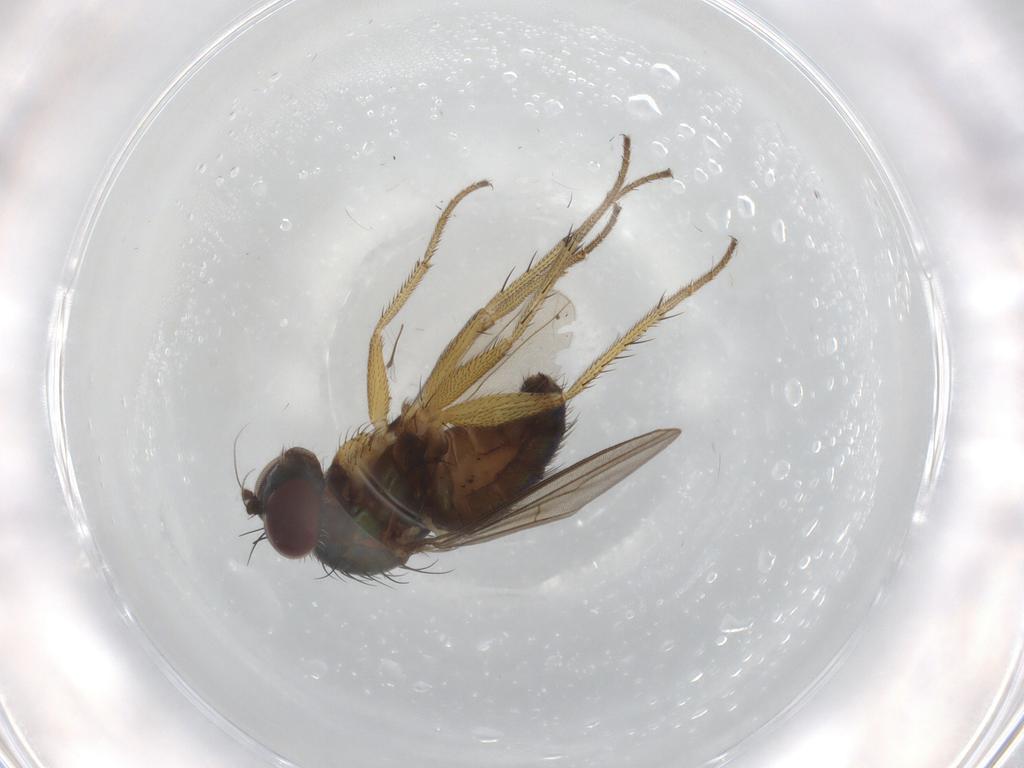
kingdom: Animalia
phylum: Arthropoda
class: Insecta
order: Diptera
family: Dolichopodidae
